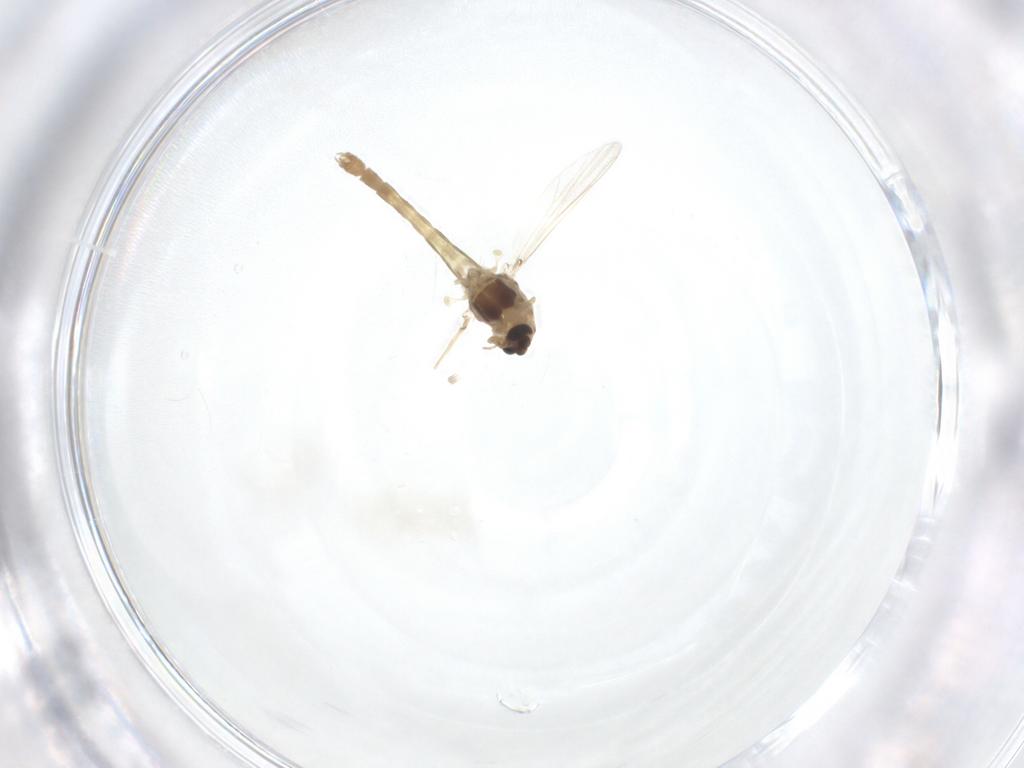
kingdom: Animalia
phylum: Arthropoda
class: Insecta
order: Diptera
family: Chironomidae
